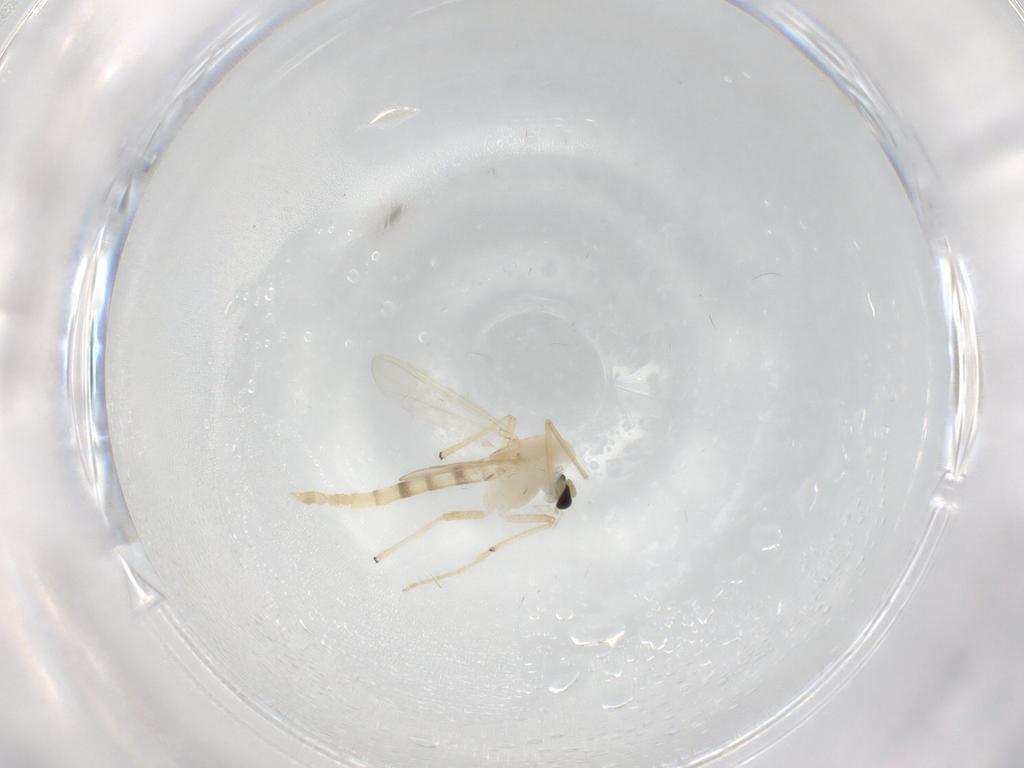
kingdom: Animalia
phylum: Arthropoda
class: Insecta
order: Diptera
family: Chironomidae
